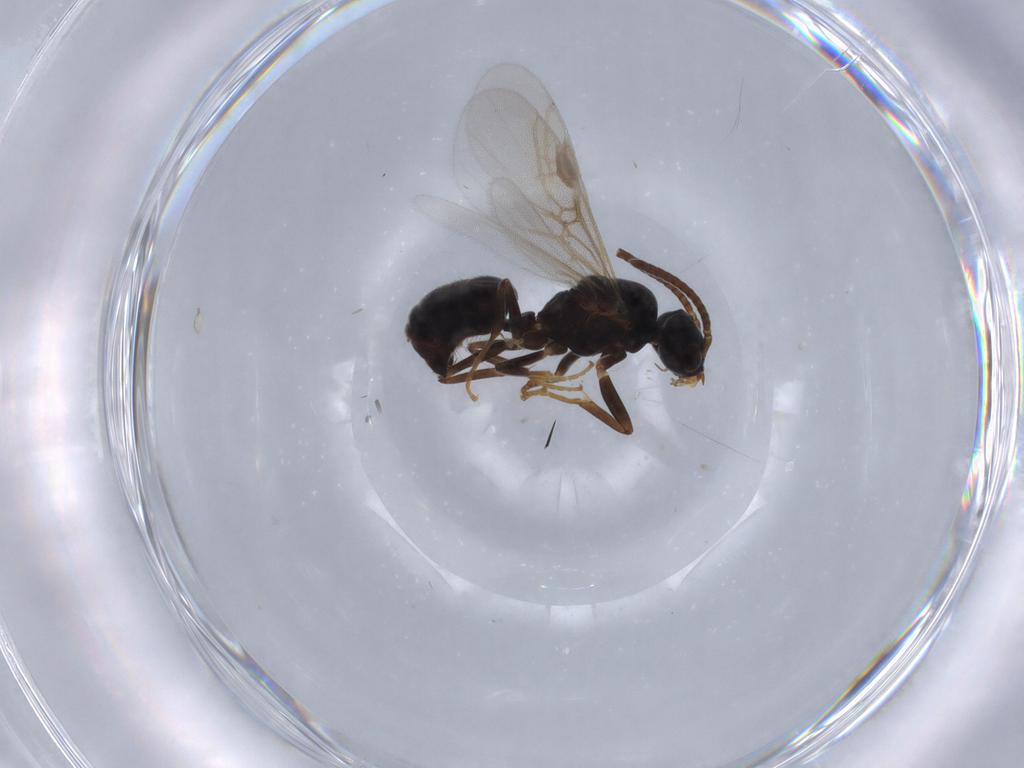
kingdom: Animalia
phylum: Arthropoda
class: Insecta
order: Hymenoptera
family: Formicidae
